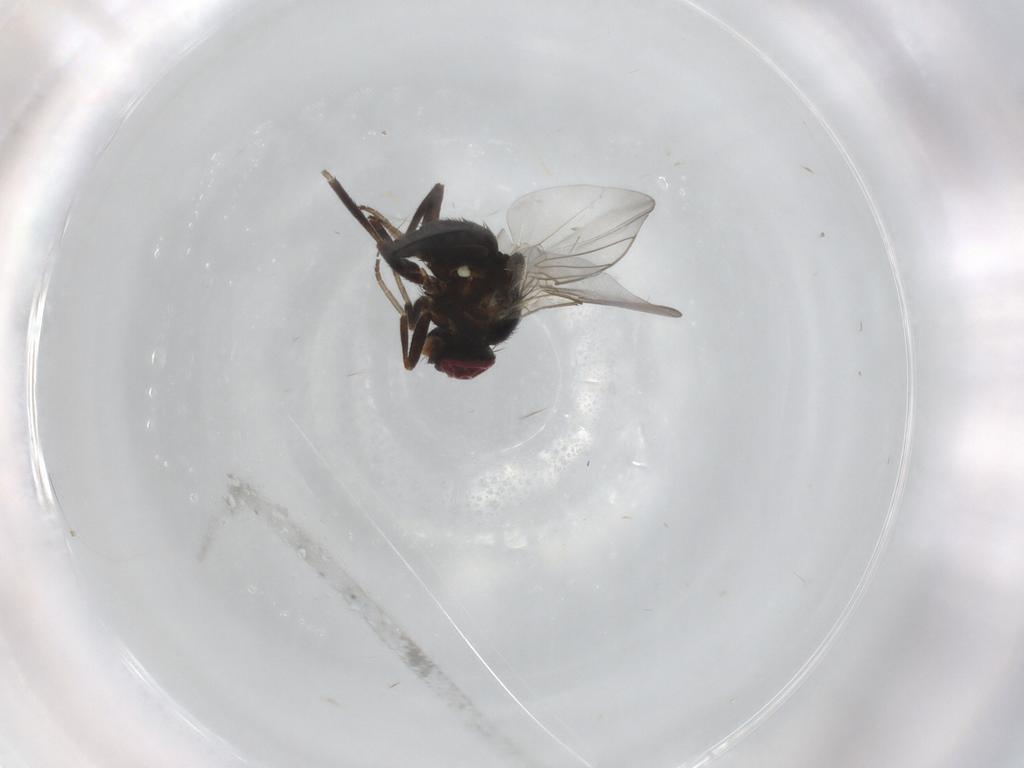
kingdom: Animalia
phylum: Arthropoda
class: Insecta
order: Diptera
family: Agromyzidae
